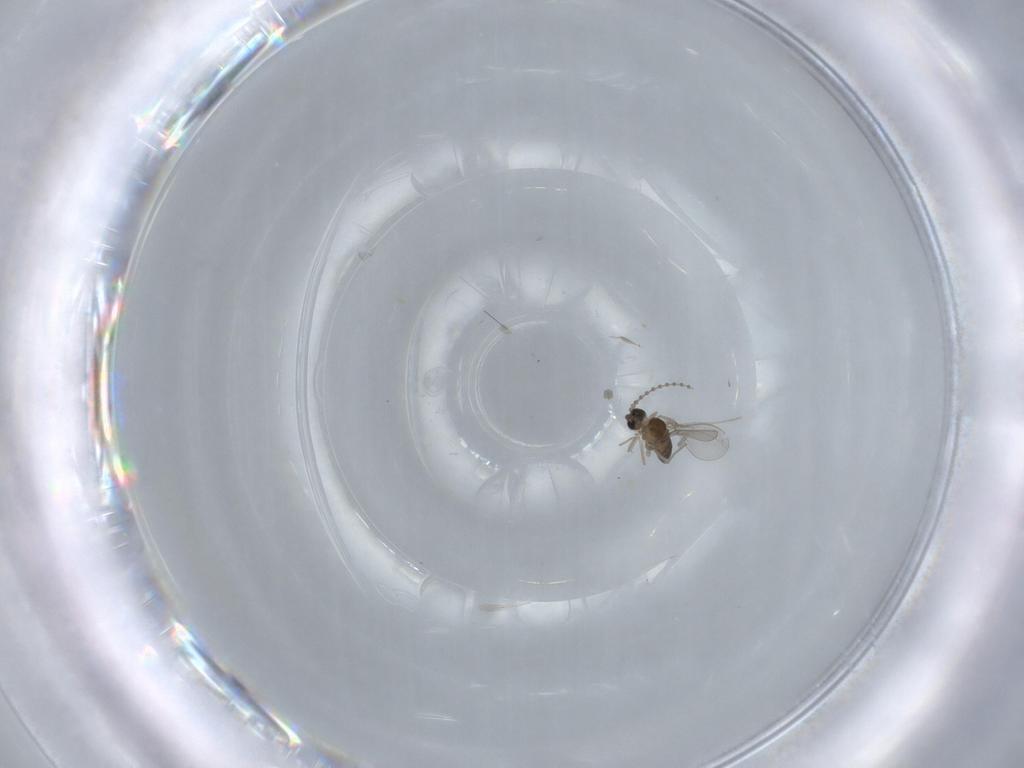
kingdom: Animalia
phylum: Arthropoda
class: Insecta
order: Diptera
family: Cecidomyiidae
